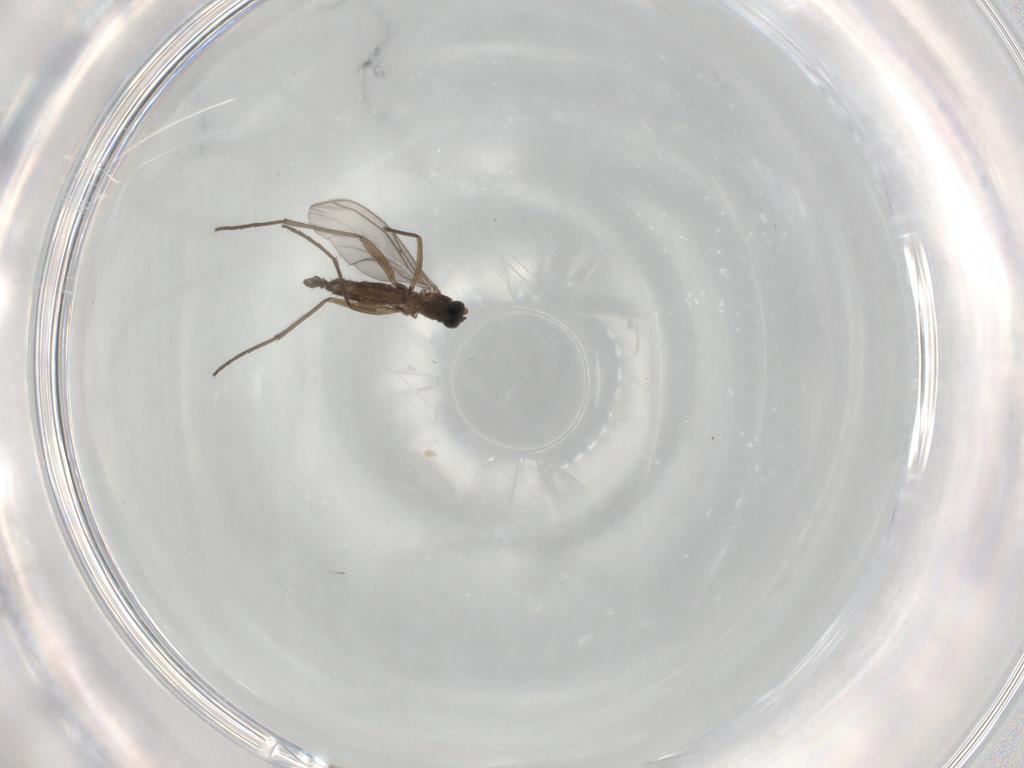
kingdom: Animalia
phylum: Arthropoda
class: Insecta
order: Diptera
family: Sciaridae
